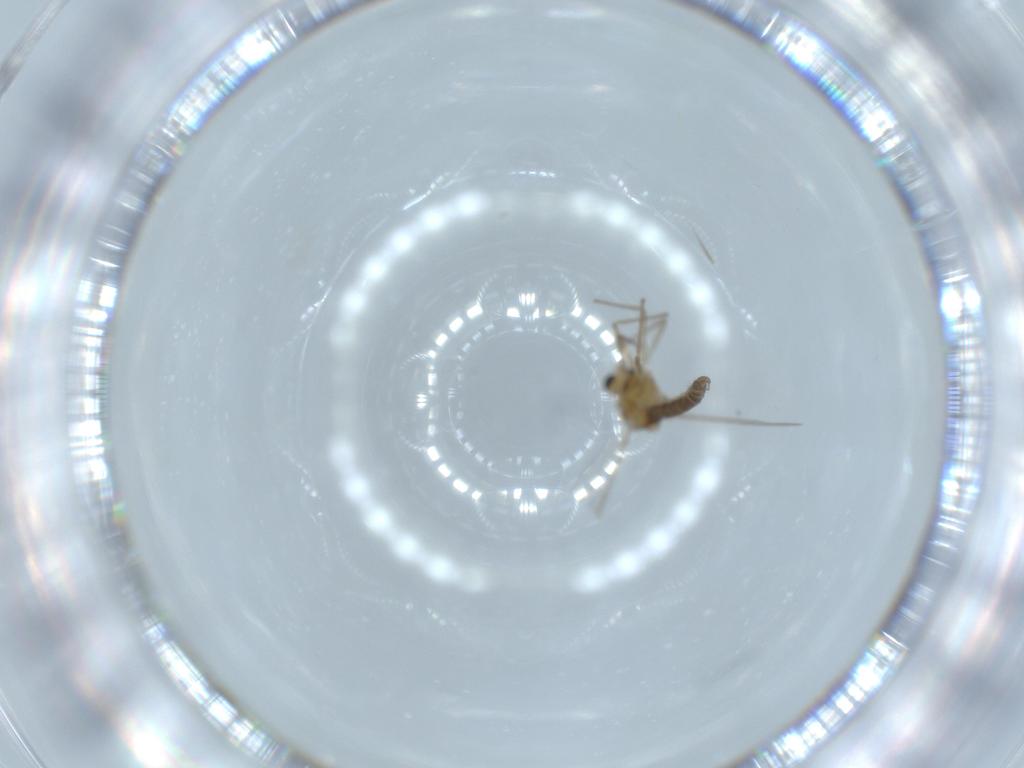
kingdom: Animalia
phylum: Arthropoda
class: Insecta
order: Diptera
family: Chironomidae
